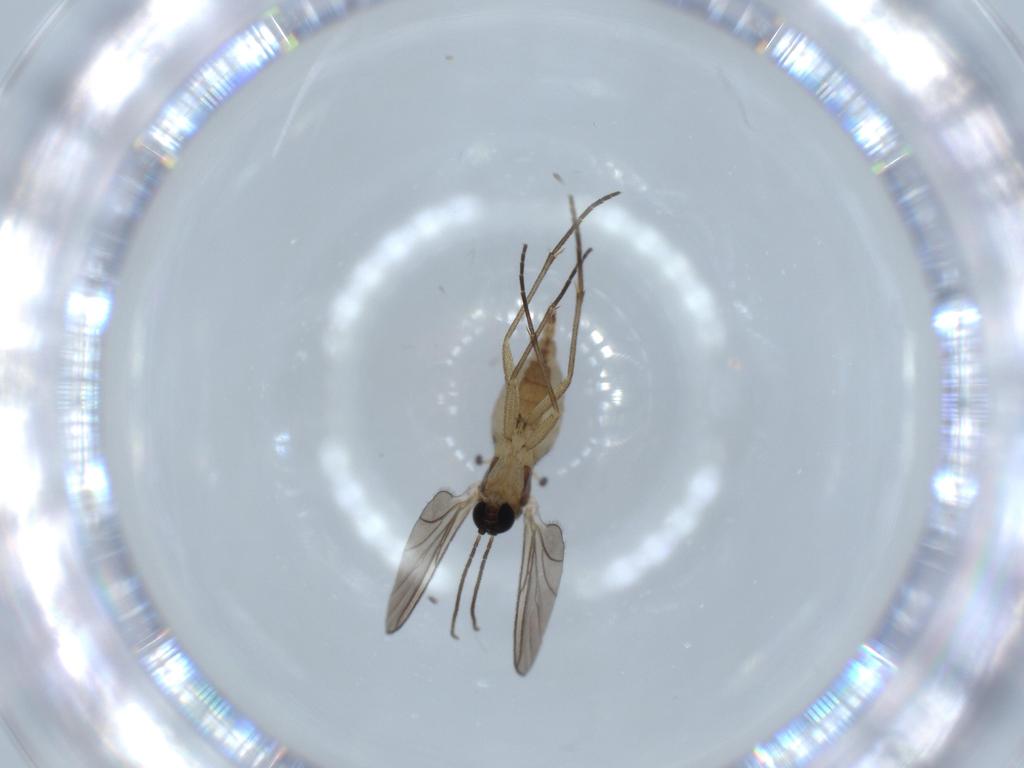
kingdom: Animalia
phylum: Arthropoda
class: Insecta
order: Diptera
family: Sciaridae
